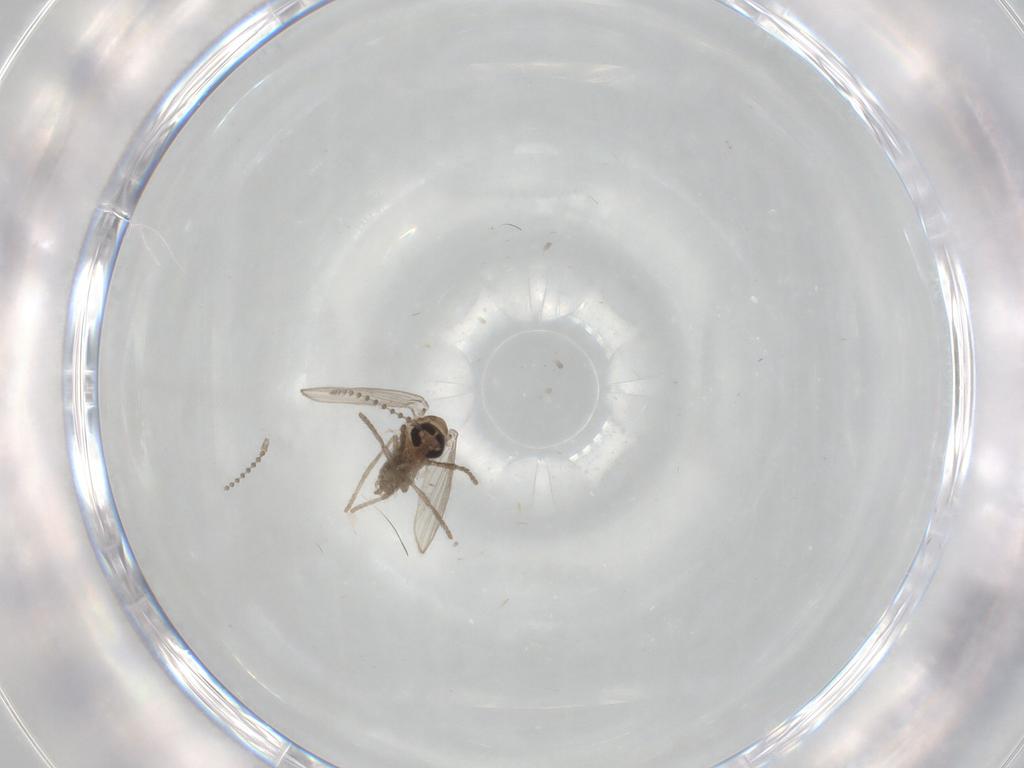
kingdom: Animalia
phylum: Arthropoda
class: Insecta
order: Diptera
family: Psychodidae
